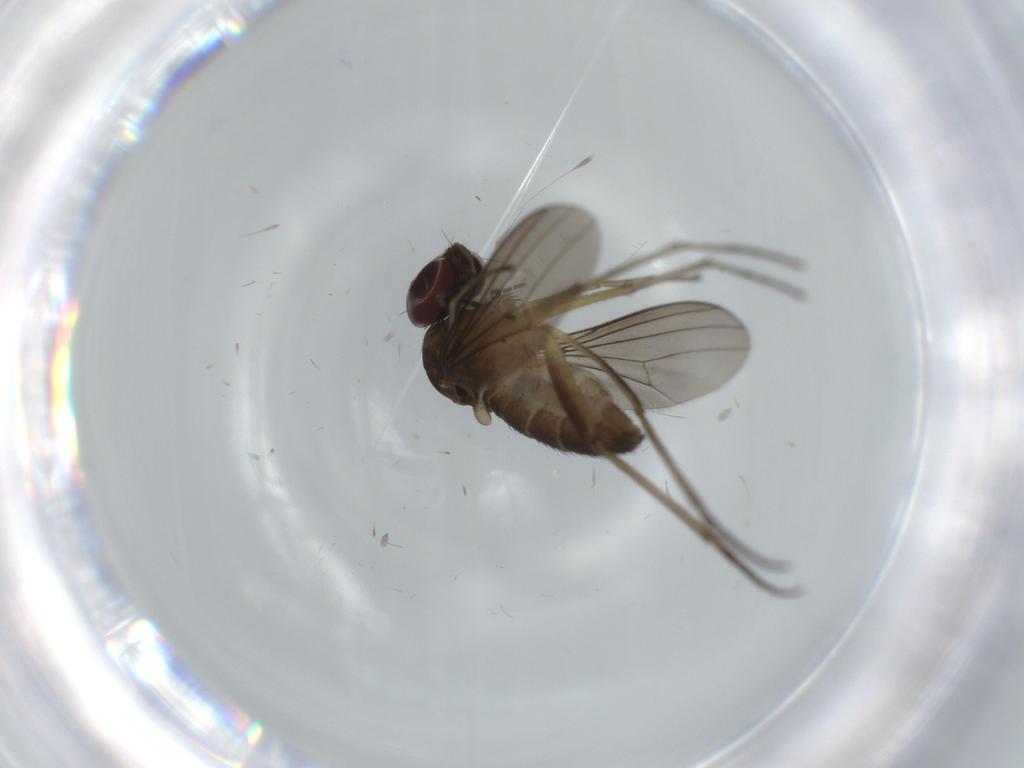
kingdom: Animalia
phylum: Arthropoda
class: Insecta
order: Diptera
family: Dolichopodidae
